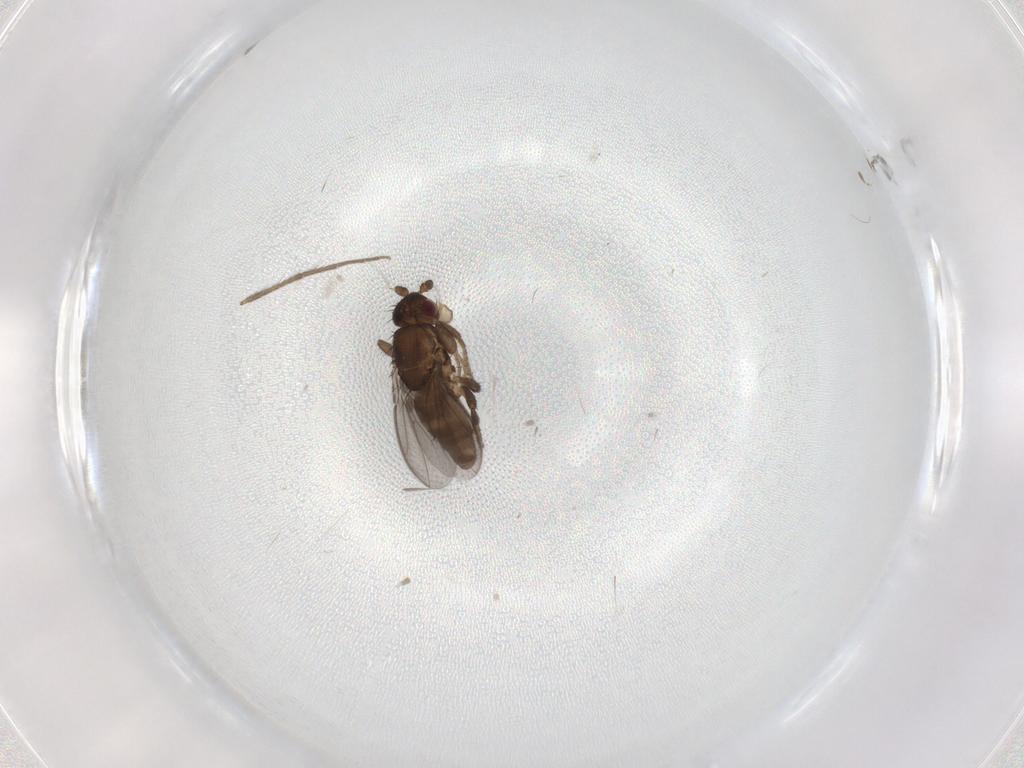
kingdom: Animalia
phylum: Arthropoda
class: Insecta
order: Diptera
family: Sphaeroceridae
